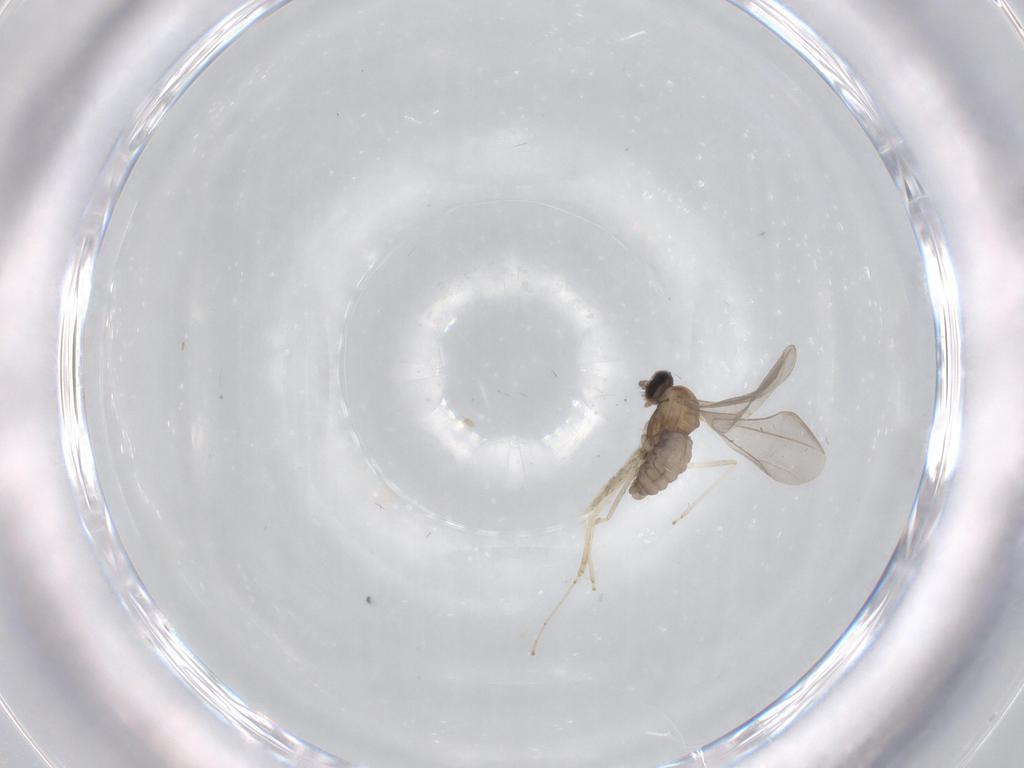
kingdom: Animalia
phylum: Arthropoda
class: Insecta
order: Diptera
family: Cecidomyiidae
